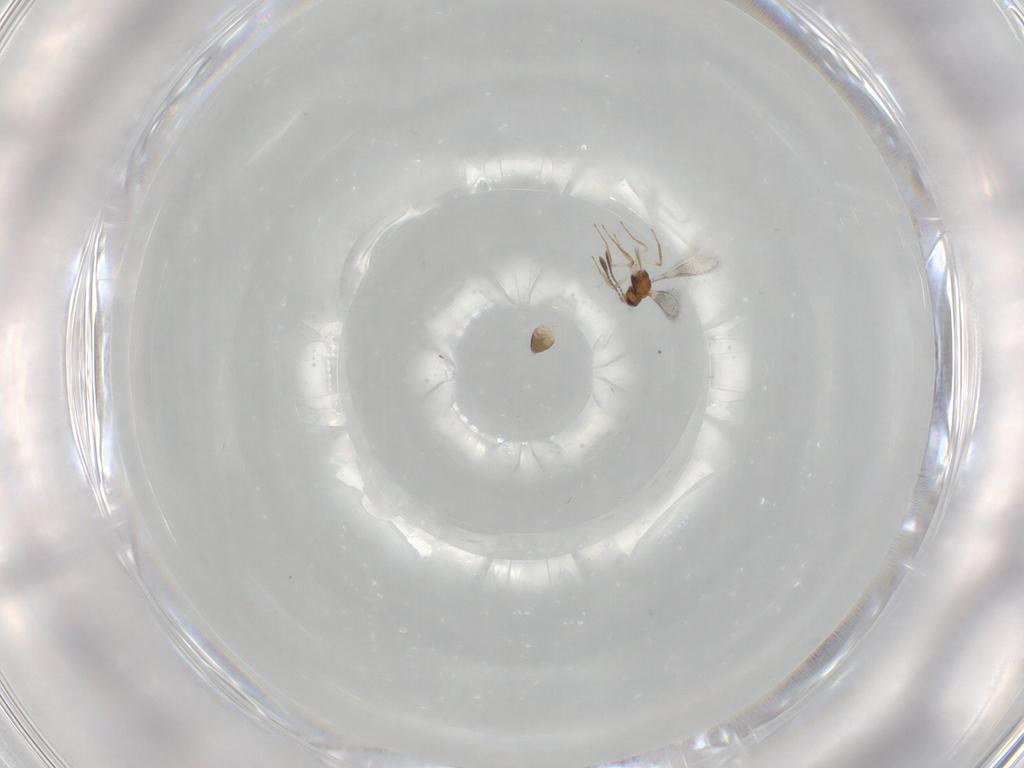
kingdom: Animalia
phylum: Arthropoda
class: Insecta
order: Hymenoptera
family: Mymaridae
